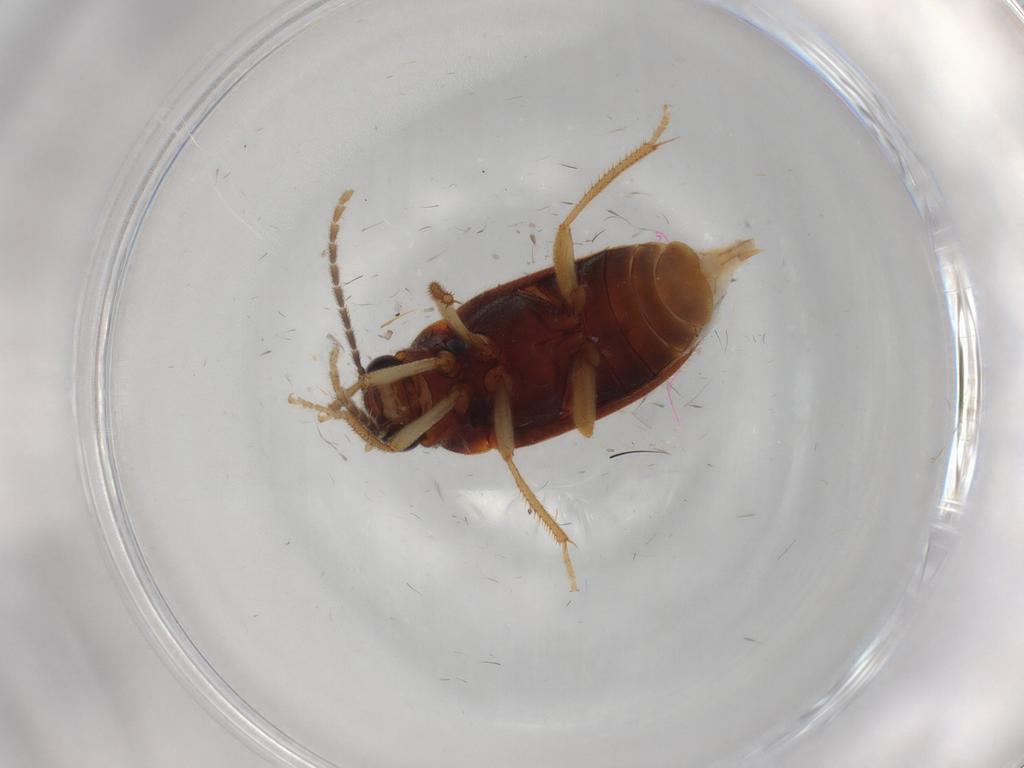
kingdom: Animalia
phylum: Arthropoda
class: Insecta
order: Coleoptera
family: Ptilodactylidae
